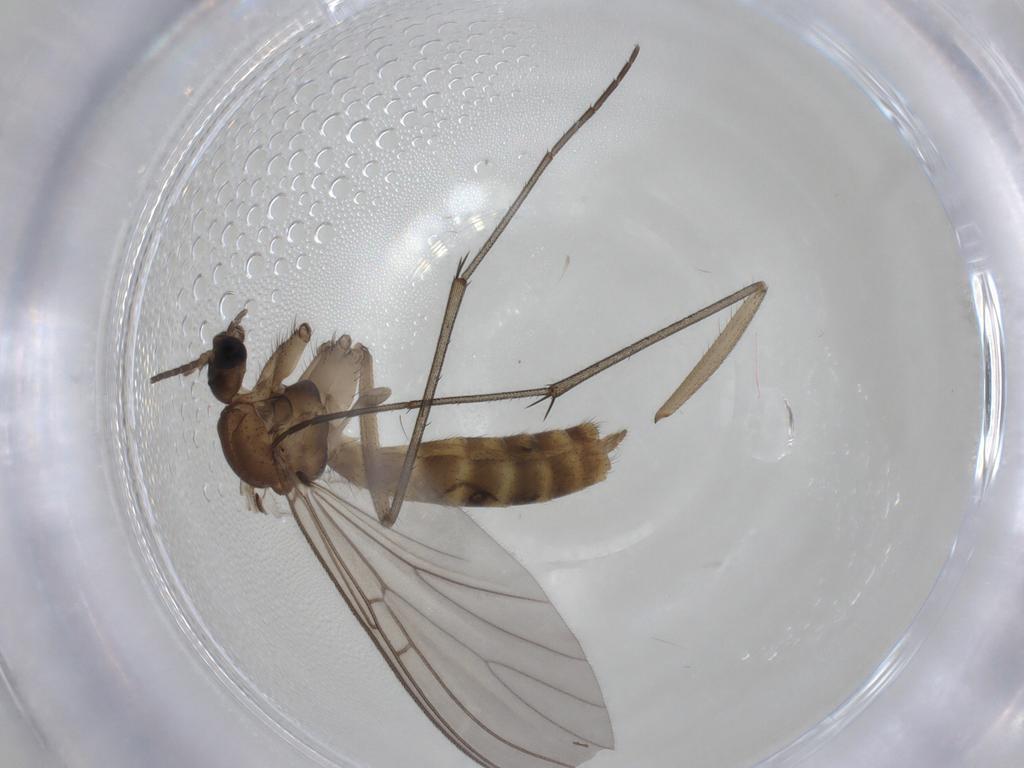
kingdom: Animalia
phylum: Arthropoda
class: Insecta
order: Diptera
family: Mycetophilidae
